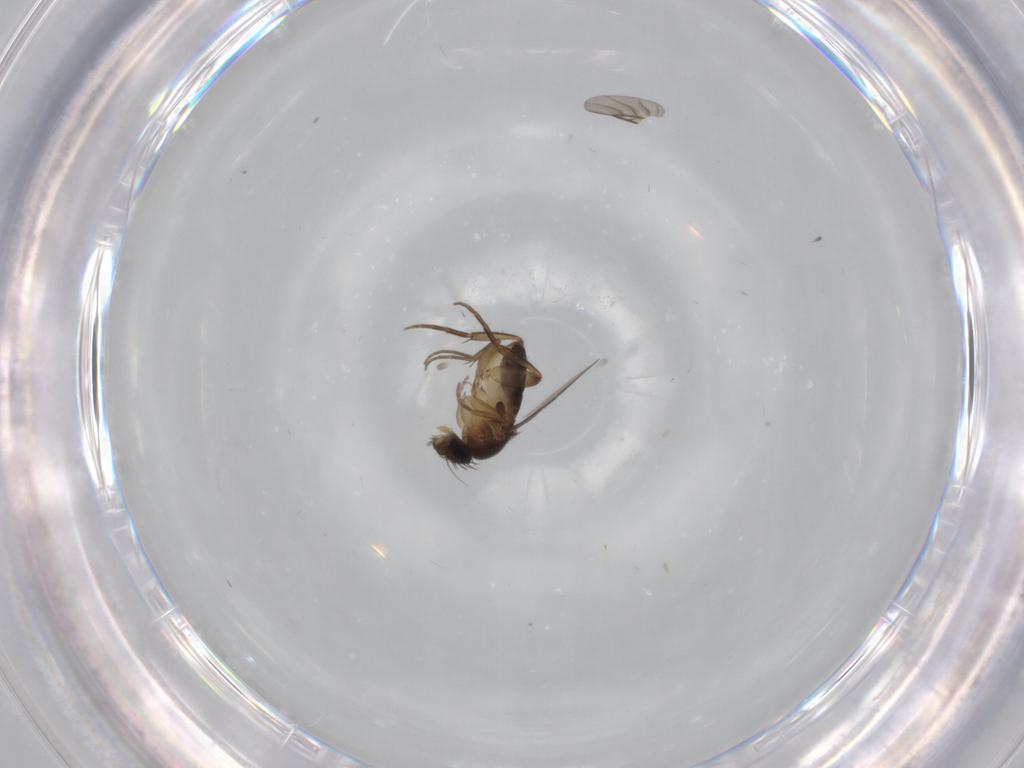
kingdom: Animalia
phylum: Arthropoda
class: Insecta
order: Diptera
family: Phoridae
